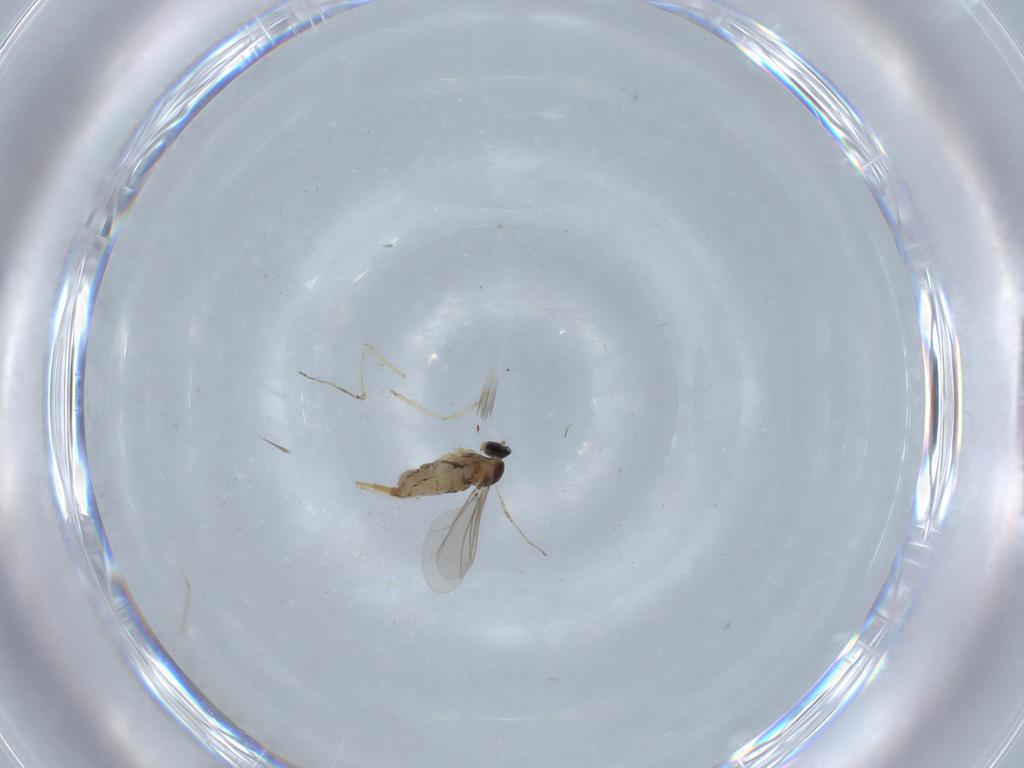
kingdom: Animalia
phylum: Arthropoda
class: Insecta
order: Diptera
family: Cecidomyiidae
